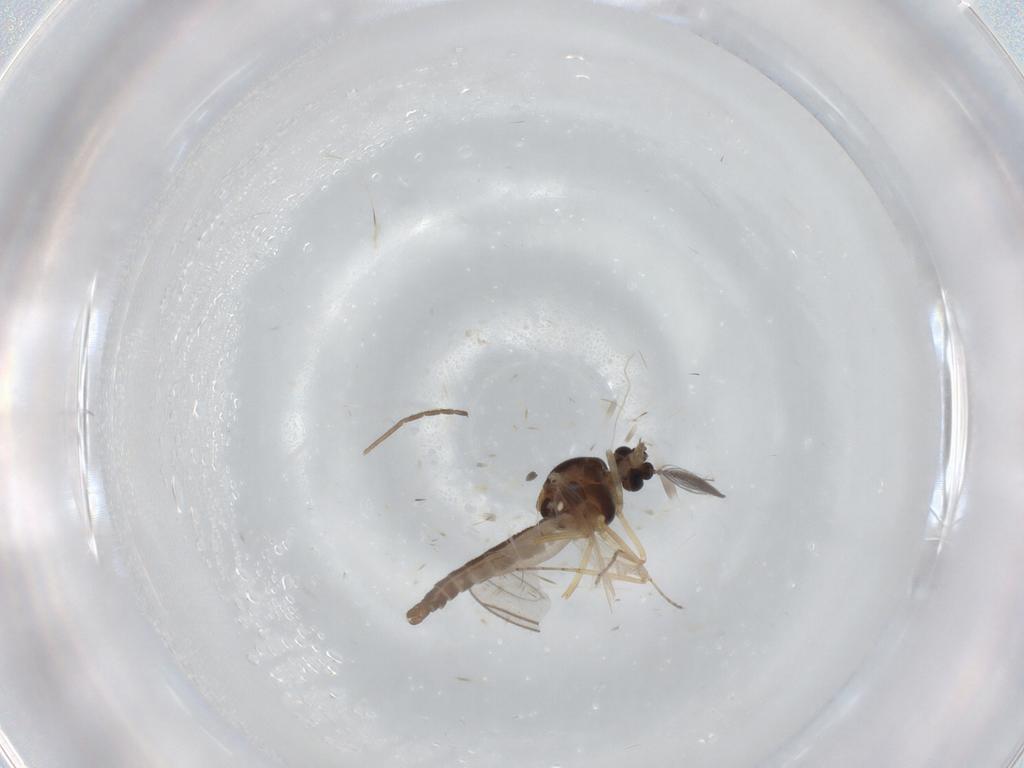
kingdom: Animalia
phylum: Arthropoda
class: Insecta
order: Diptera
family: Ceratopogonidae
